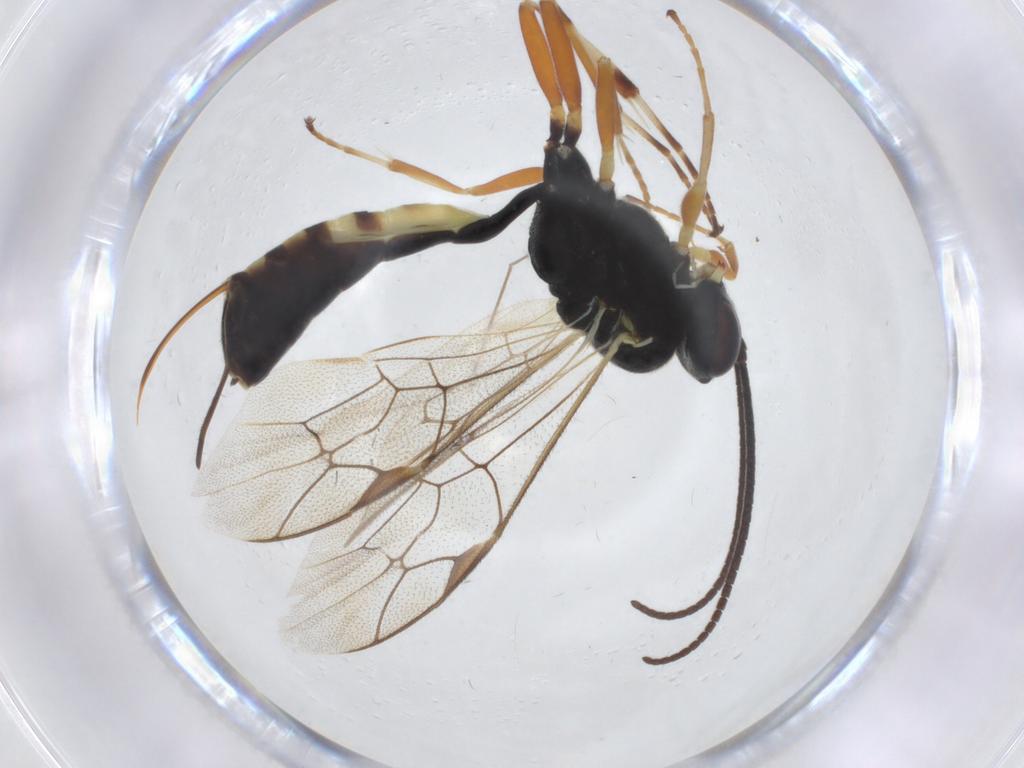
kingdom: Animalia
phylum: Arthropoda
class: Insecta
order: Hymenoptera
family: Ichneumonidae
